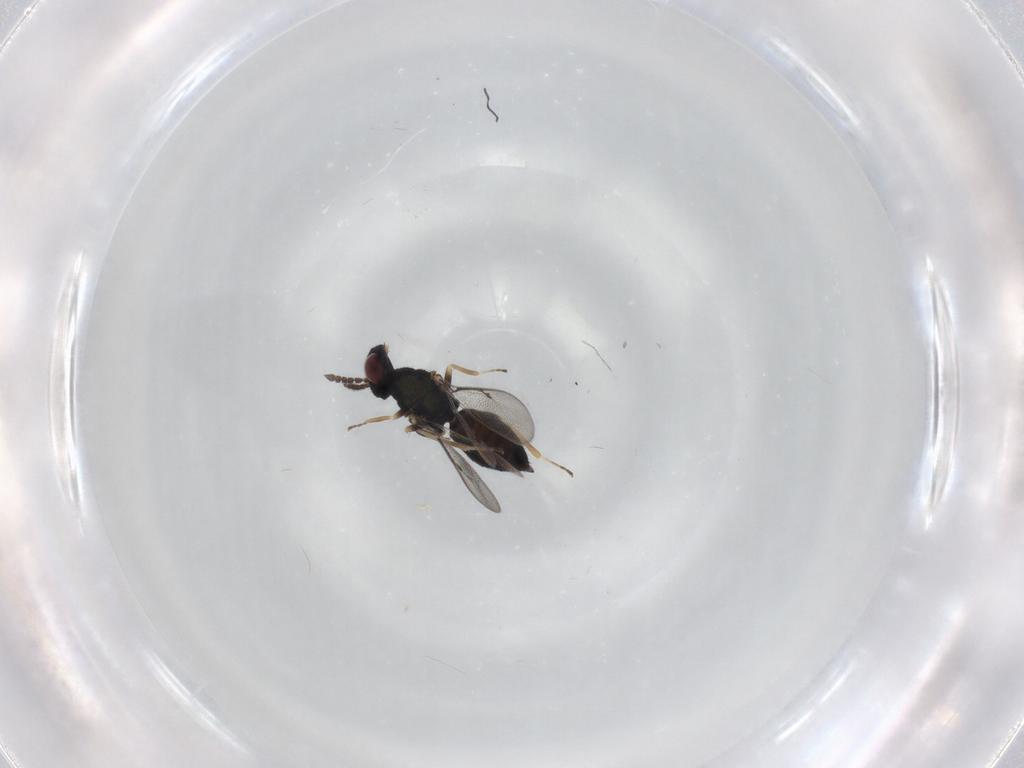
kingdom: Animalia
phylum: Arthropoda
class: Insecta
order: Hymenoptera
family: Eulophidae
